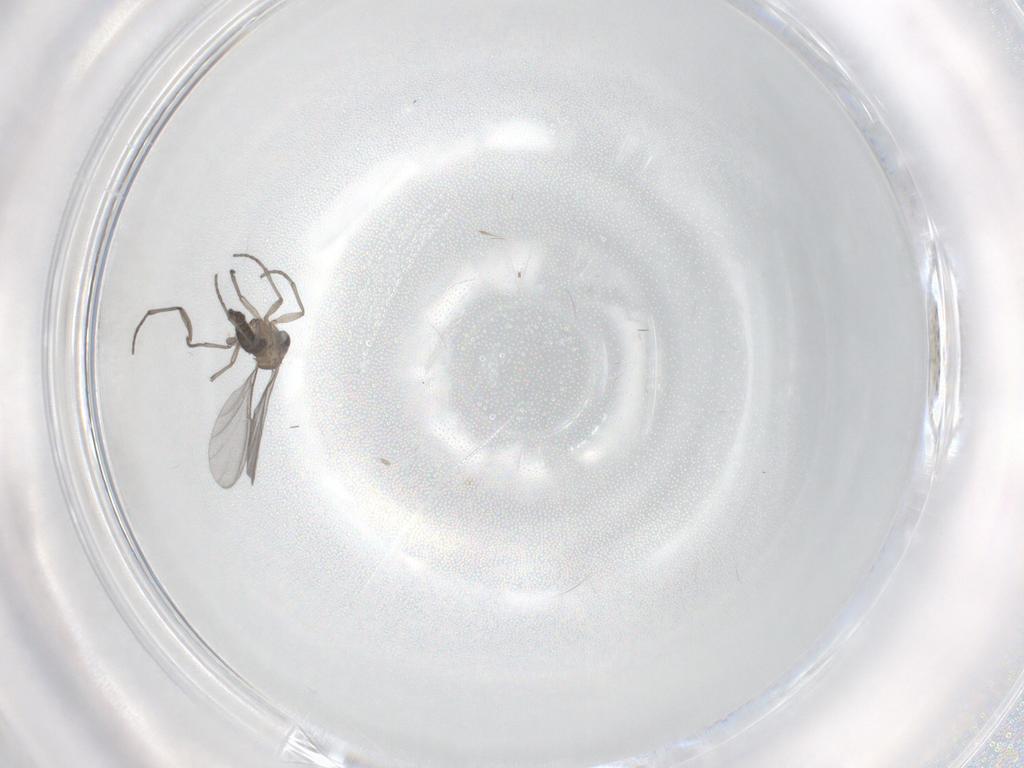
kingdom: Animalia
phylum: Arthropoda
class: Insecta
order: Diptera
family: Sciaridae
